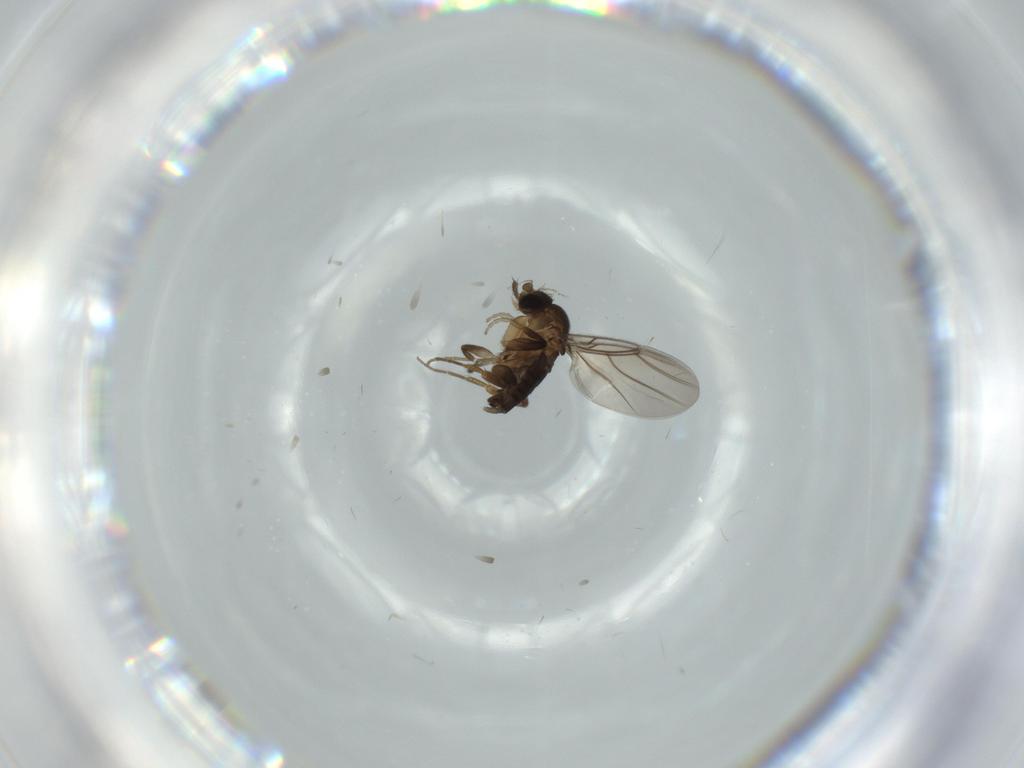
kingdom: Animalia
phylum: Arthropoda
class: Insecta
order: Diptera
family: Phoridae
